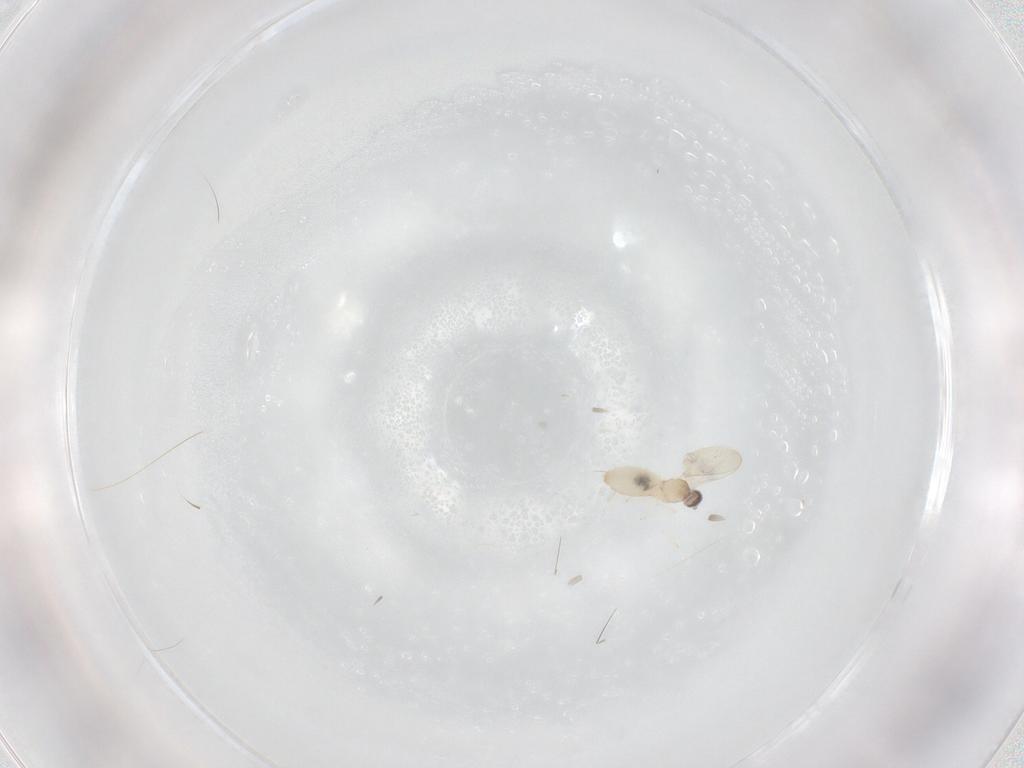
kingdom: Animalia
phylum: Arthropoda
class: Insecta
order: Diptera
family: Cecidomyiidae
